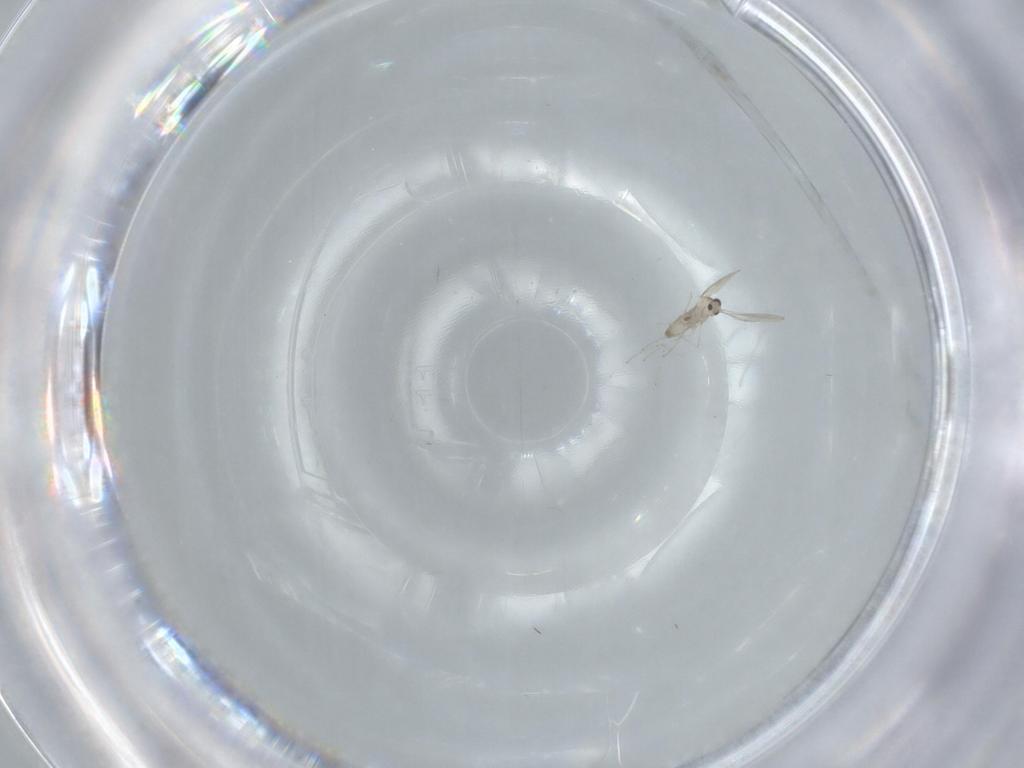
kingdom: Animalia
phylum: Arthropoda
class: Insecta
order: Diptera
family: Cecidomyiidae
